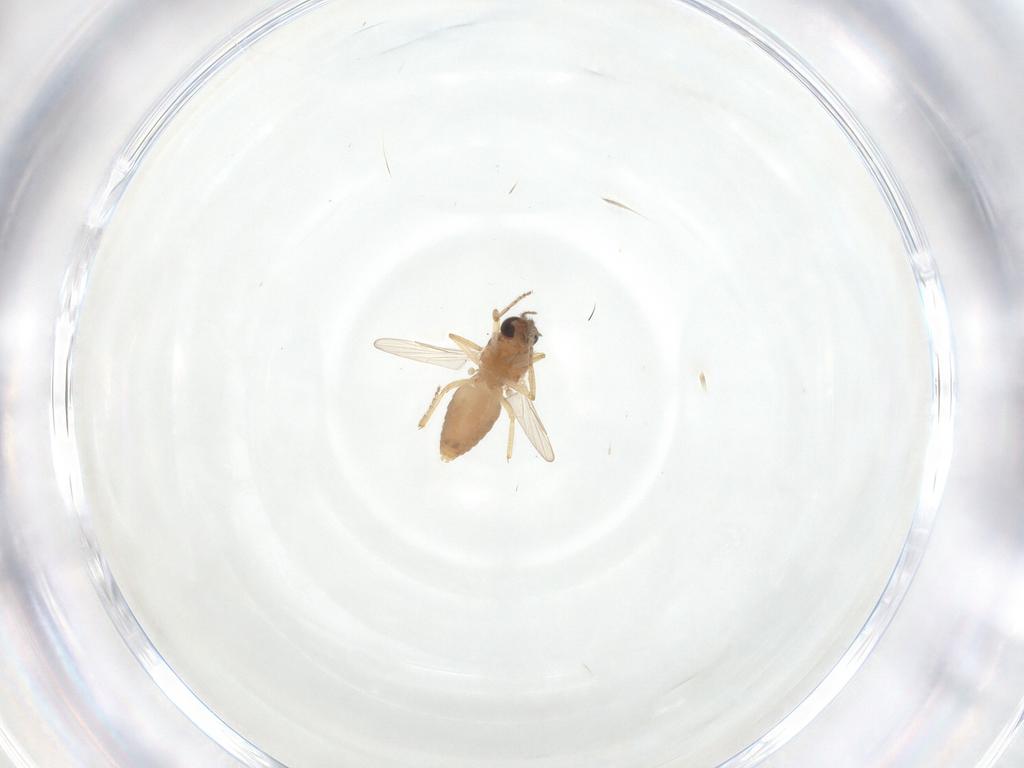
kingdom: Animalia
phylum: Arthropoda
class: Insecta
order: Diptera
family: Ceratopogonidae
